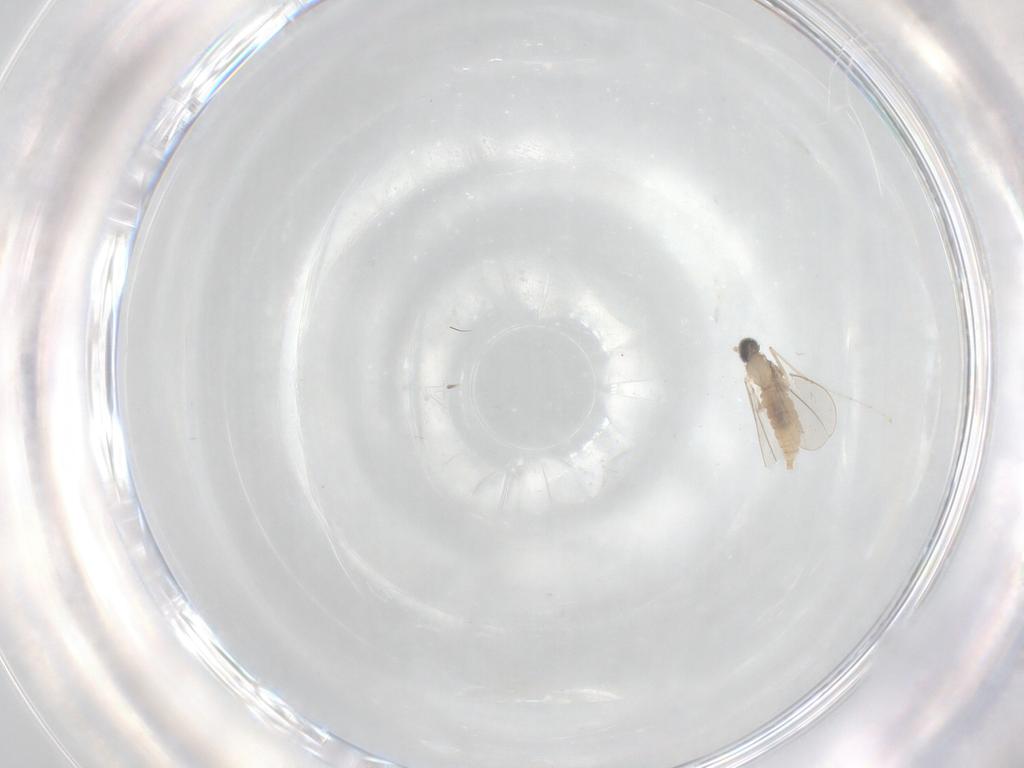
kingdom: Animalia
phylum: Arthropoda
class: Insecta
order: Diptera
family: Cecidomyiidae
